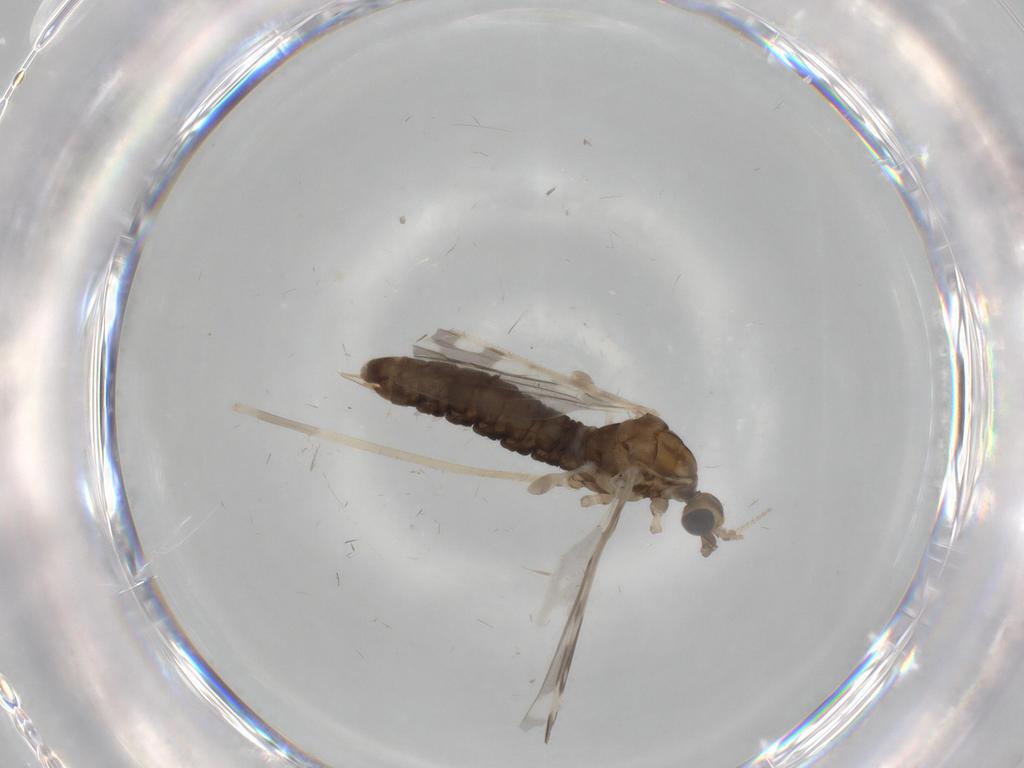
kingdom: Animalia
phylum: Arthropoda
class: Insecta
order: Diptera
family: Limoniidae
